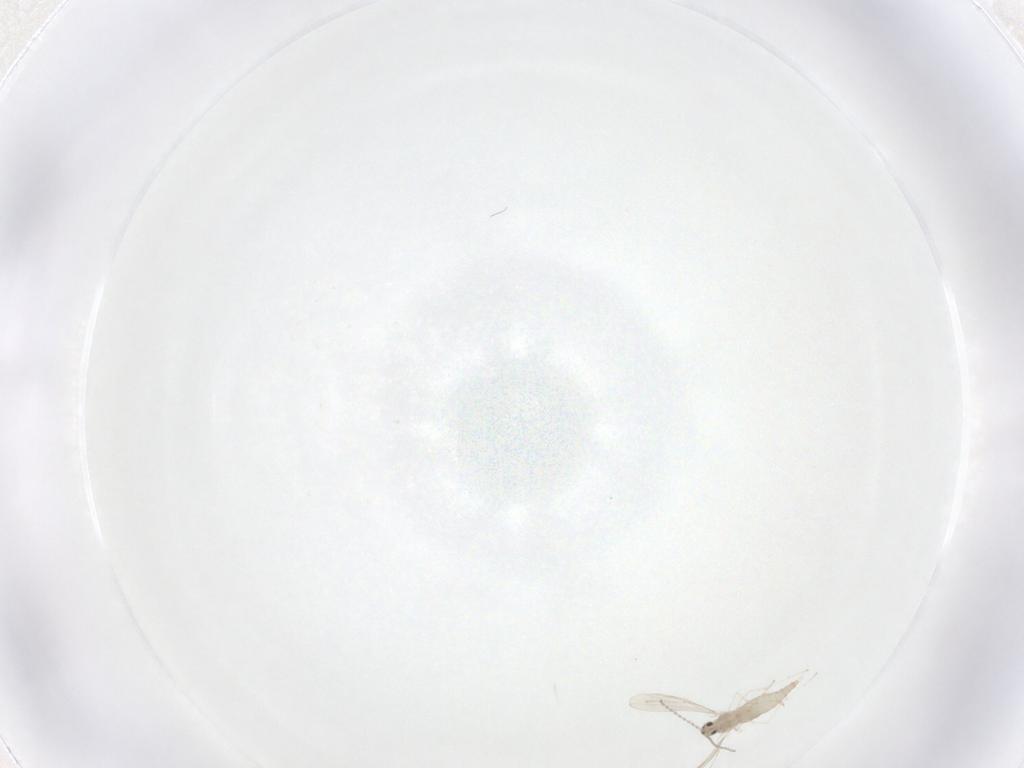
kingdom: Animalia
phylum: Arthropoda
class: Insecta
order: Diptera
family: Cecidomyiidae
